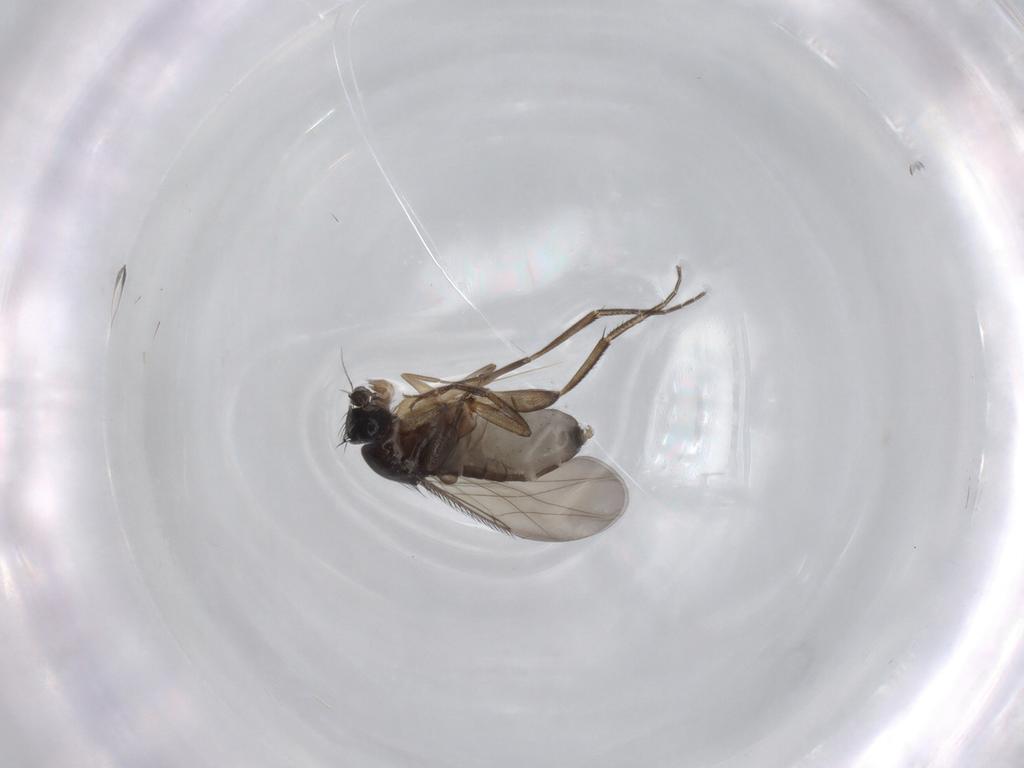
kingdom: Animalia
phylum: Arthropoda
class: Insecta
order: Diptera
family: Phoridae
